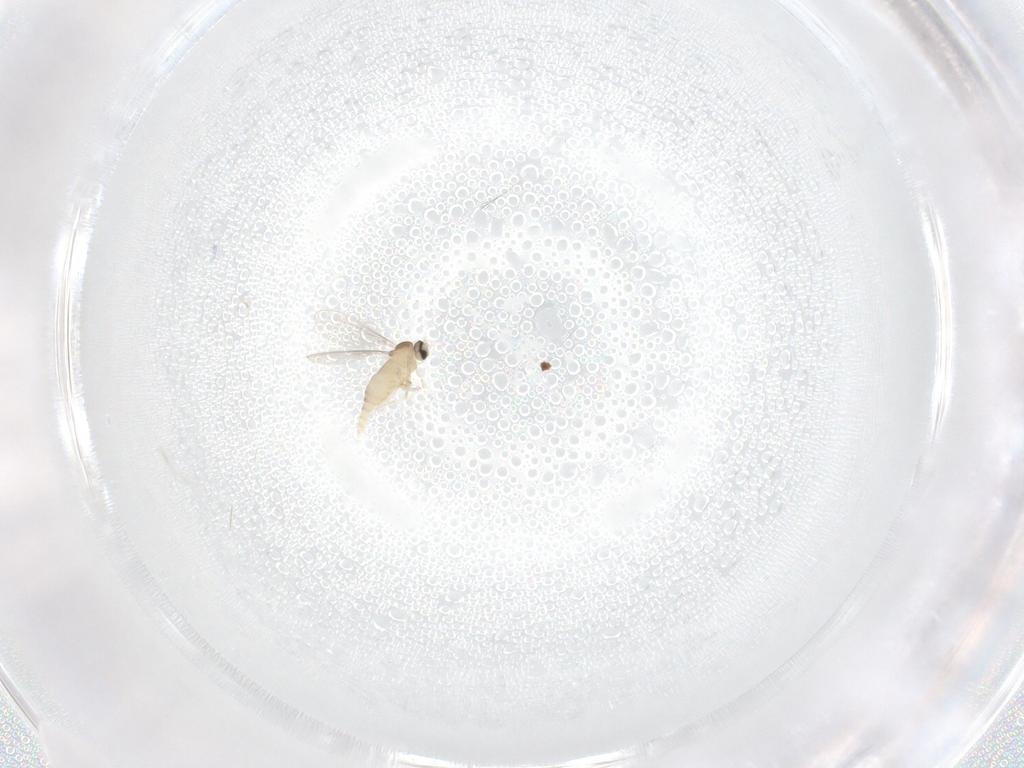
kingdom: Animalia
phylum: Arthropoda
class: Insecta
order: Diptera
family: Cecidomyiidae
